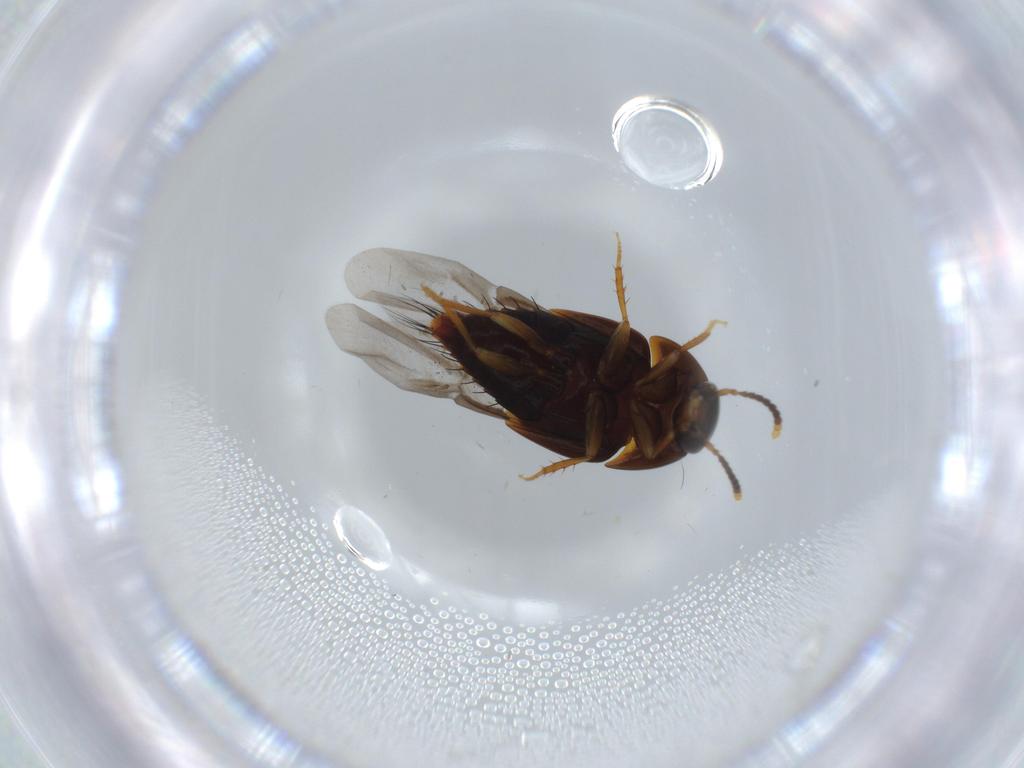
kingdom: Animalia
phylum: Arthropoda
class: Insecta
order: Coleoptera
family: Staphylinidae
